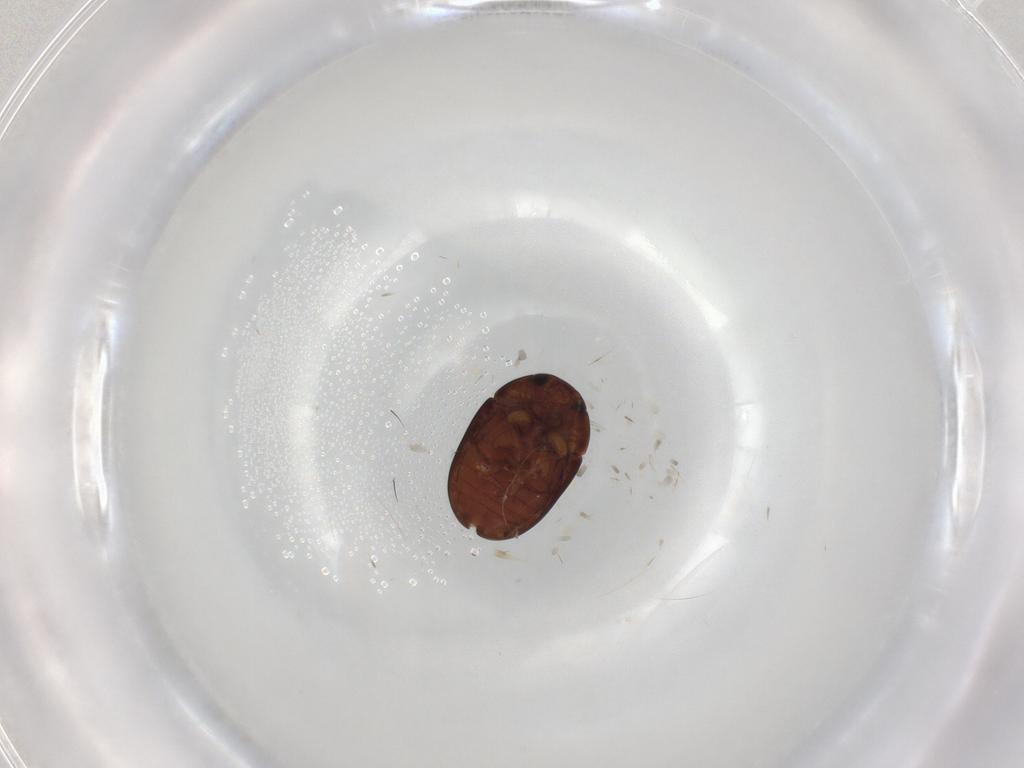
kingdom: Animalia
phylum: Arthropoda
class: Insecta
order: Coleoptera
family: Phalacridae
